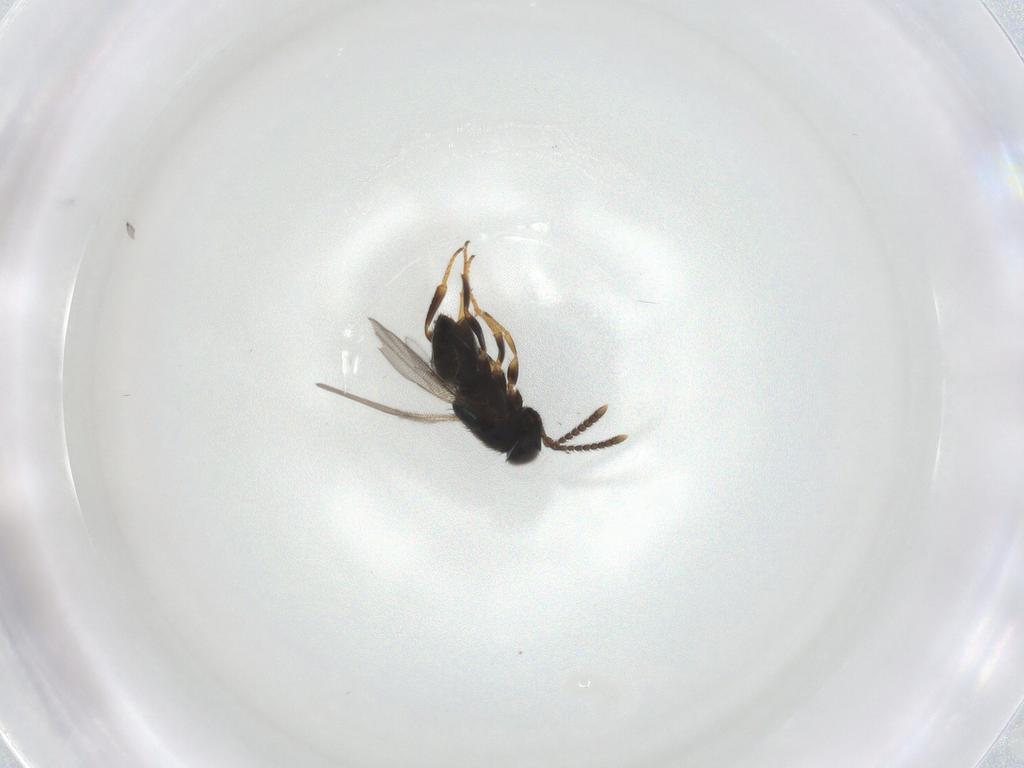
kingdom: Animalia
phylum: Arthropoda
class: Insecta
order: Hymenoptera
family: Encyrtidae
